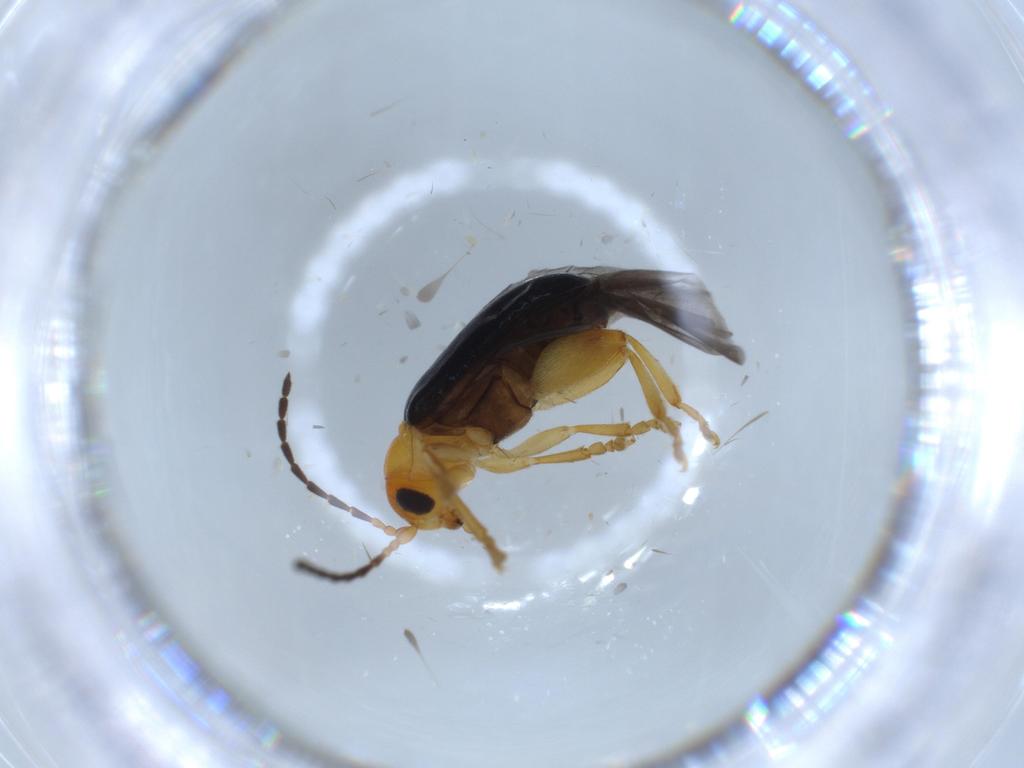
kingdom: Animalia
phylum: Arthropoda
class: Insecta
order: Coleoptera
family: Chrysomelidae
